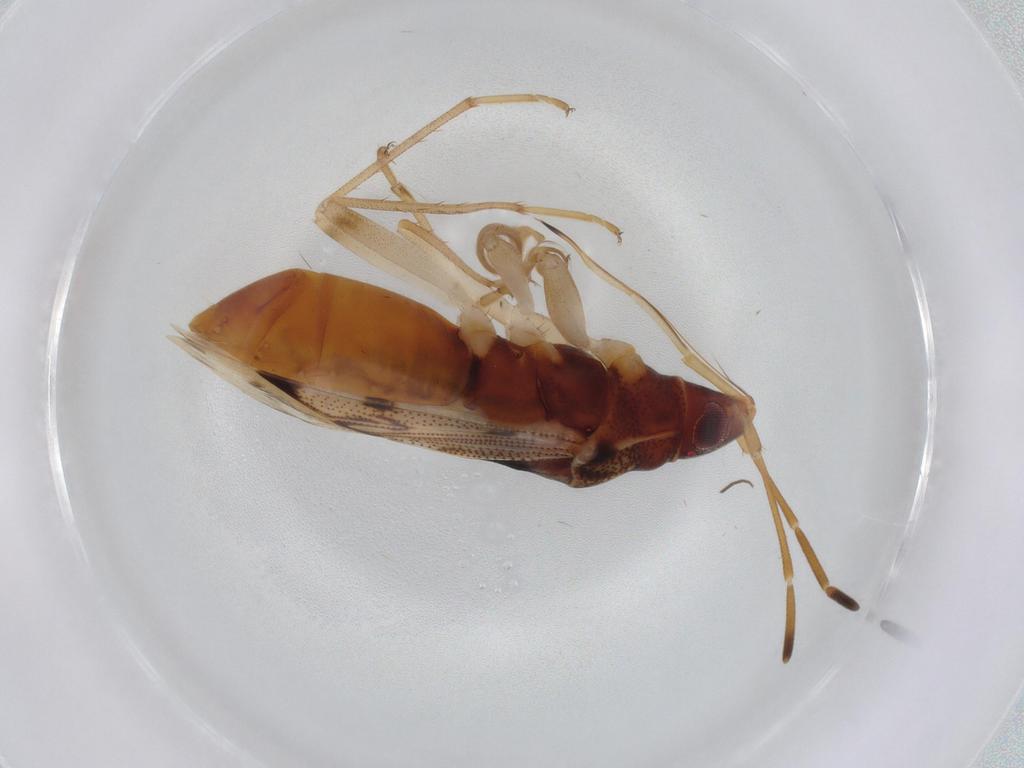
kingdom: Animalia
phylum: Arthropoda
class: Insecta
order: Hemiptera
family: Rhyparochromidae
